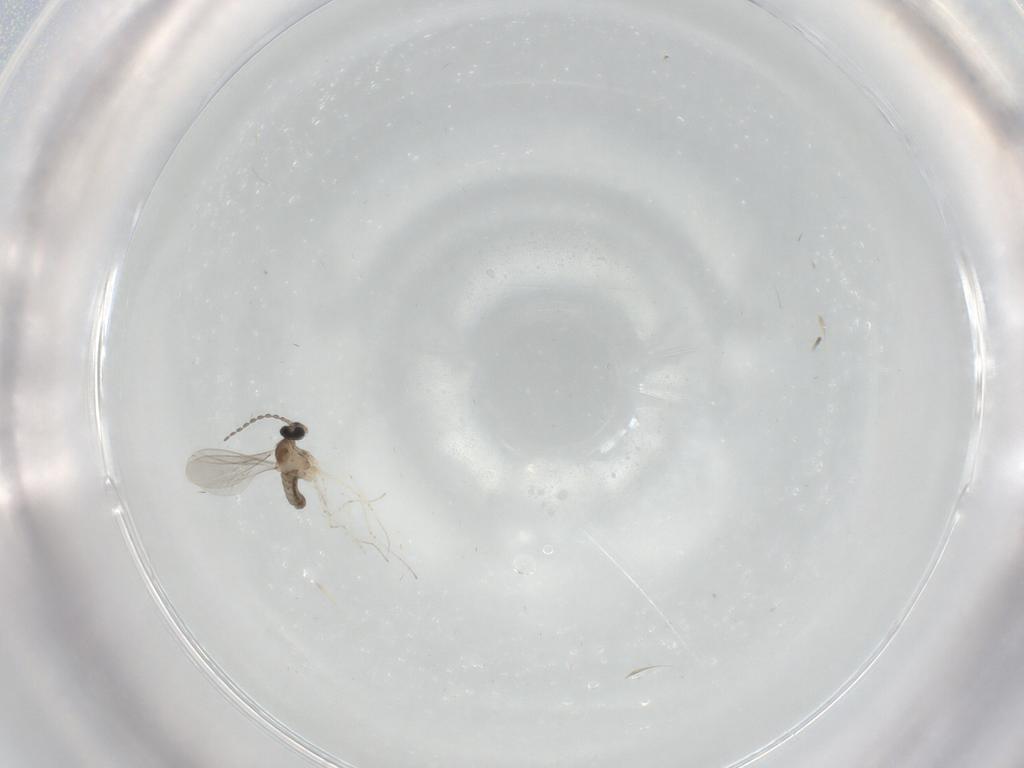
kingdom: Animalia
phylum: Arthropoda
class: Insecta
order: Diptera
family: Cecidomyiidae
